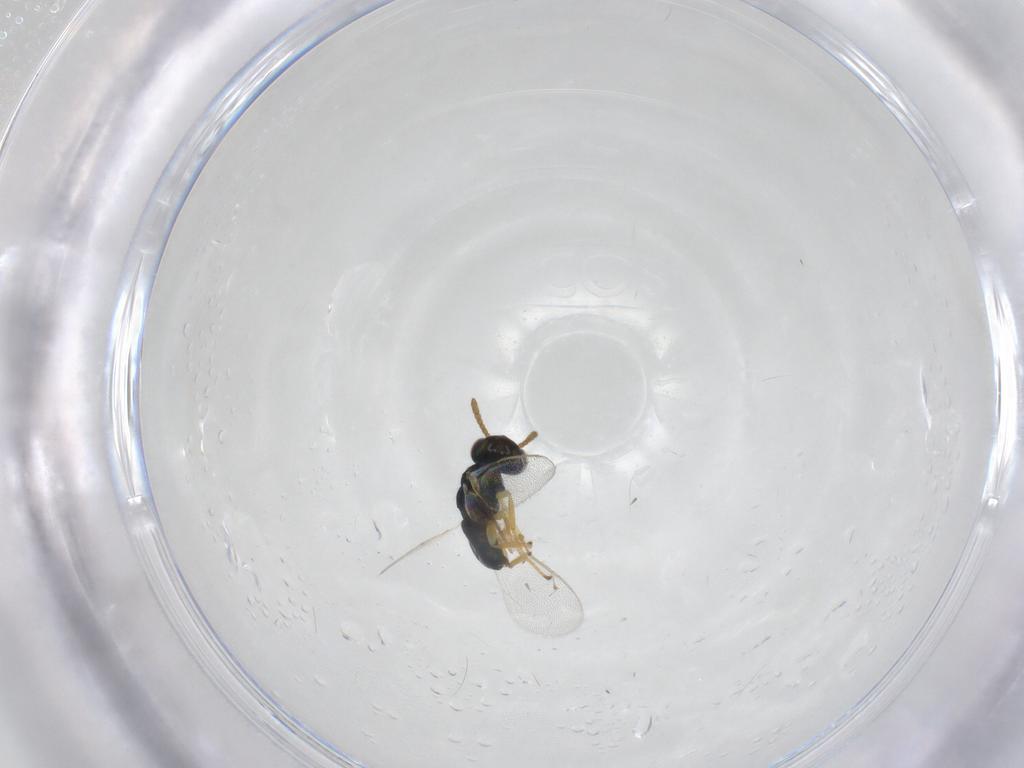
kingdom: Animalia
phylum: Arthropoda
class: Insecta
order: Hymenoptera
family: Pteromalidae
